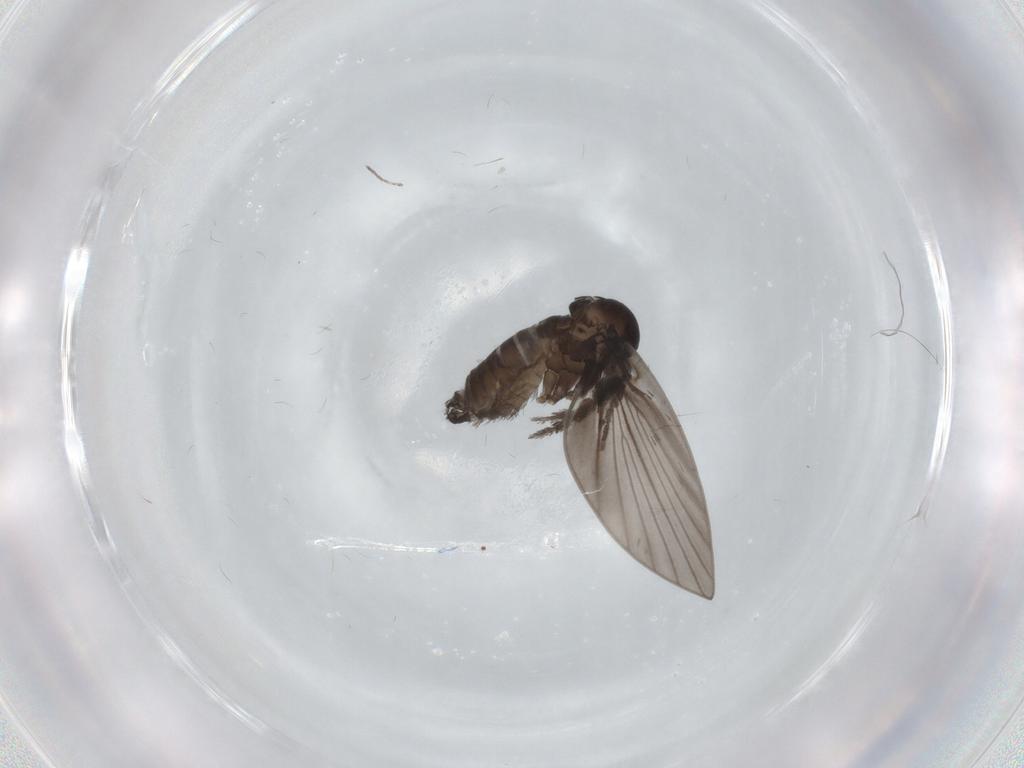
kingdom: Animalia
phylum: Arthropoda
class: Insecta
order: Diptera
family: Psychodidae
